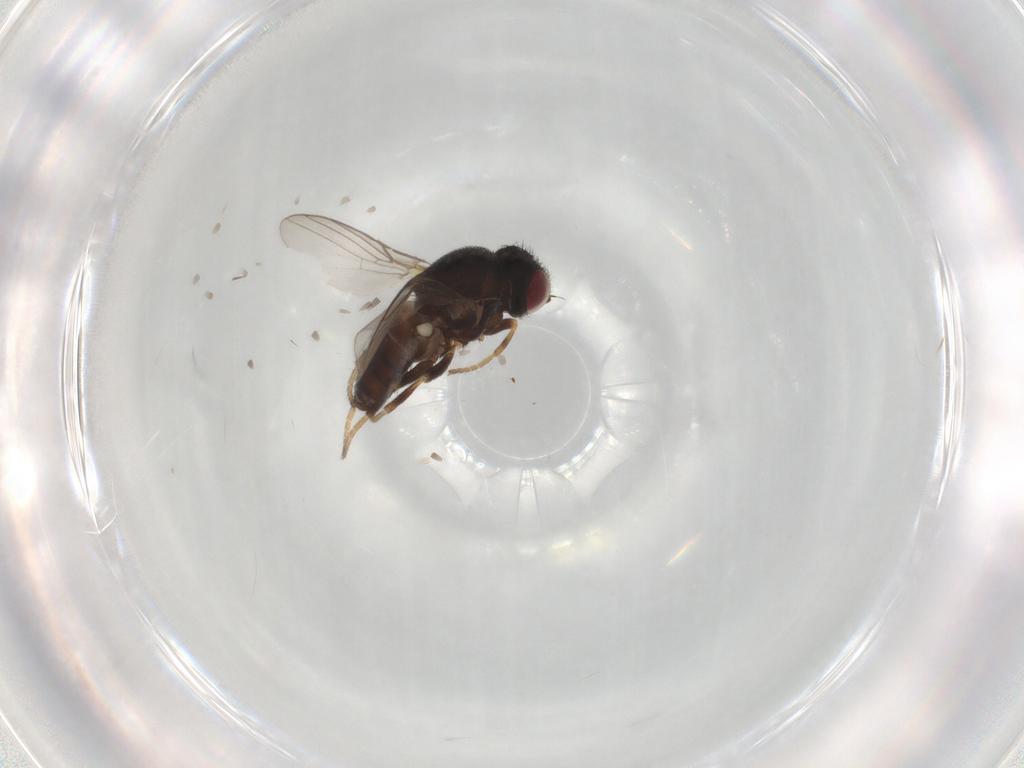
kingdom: Animalia
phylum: Arthropoda
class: Insecta
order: Diptera
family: Chloropidae
